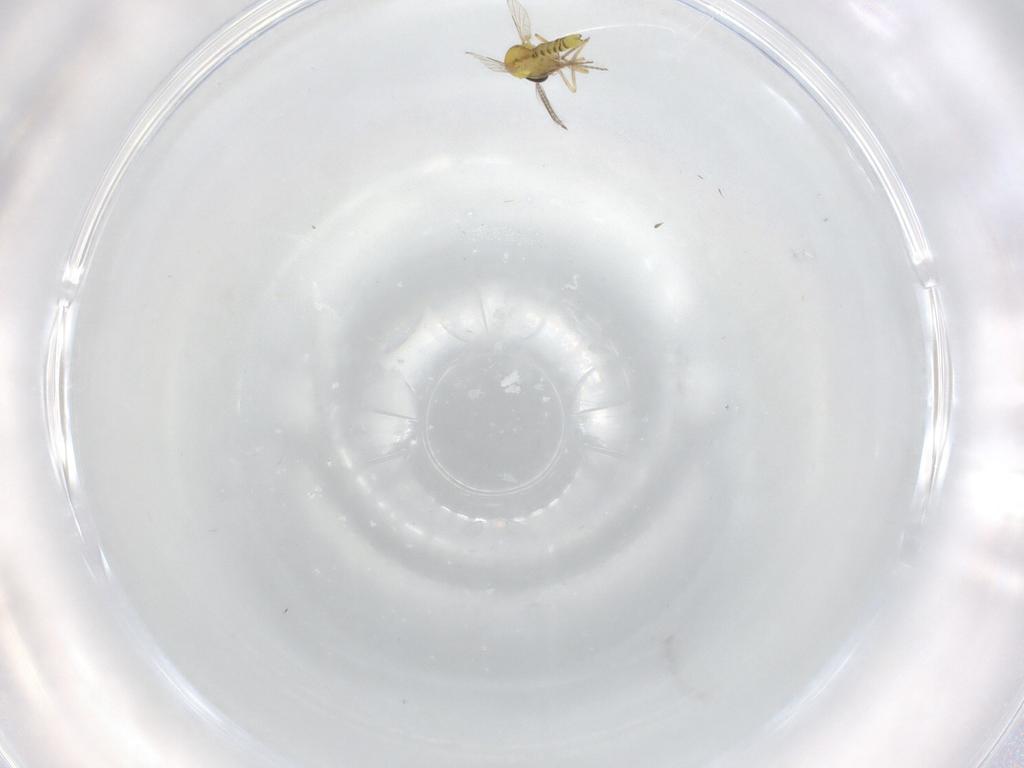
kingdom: Animalia
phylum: Arthropoda
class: Insecta
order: Diptera
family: Ceratopogonidae
